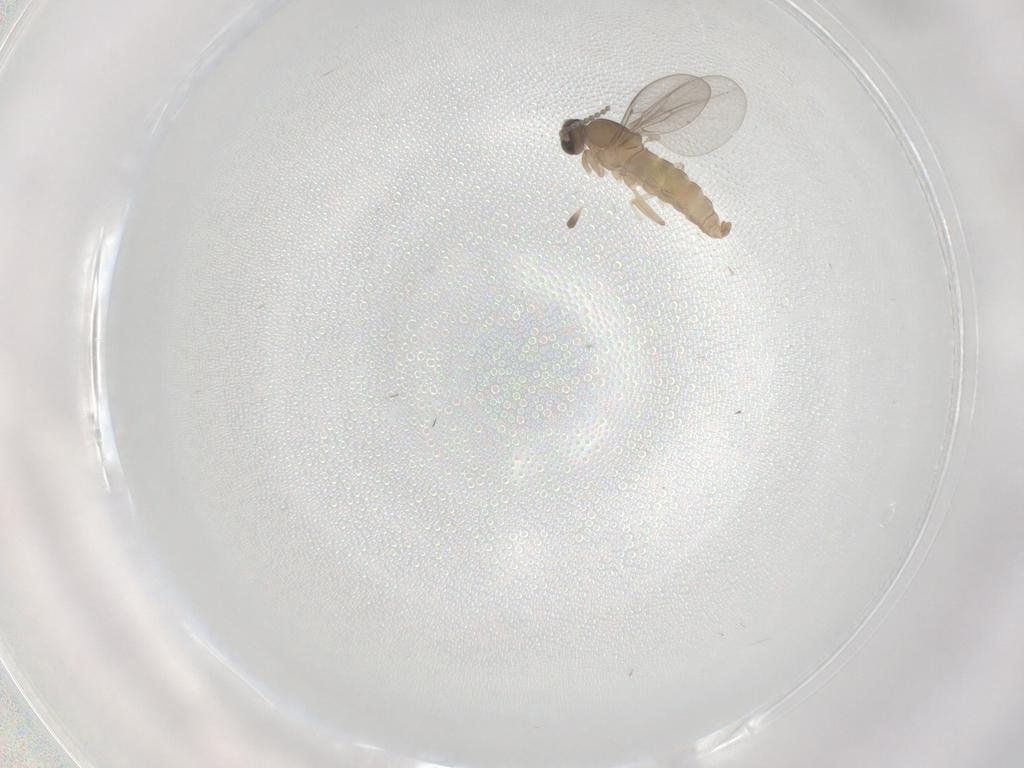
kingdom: Animalia
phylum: Arthropoda
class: Insecta
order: Diptera
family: Cecidomyiidae
